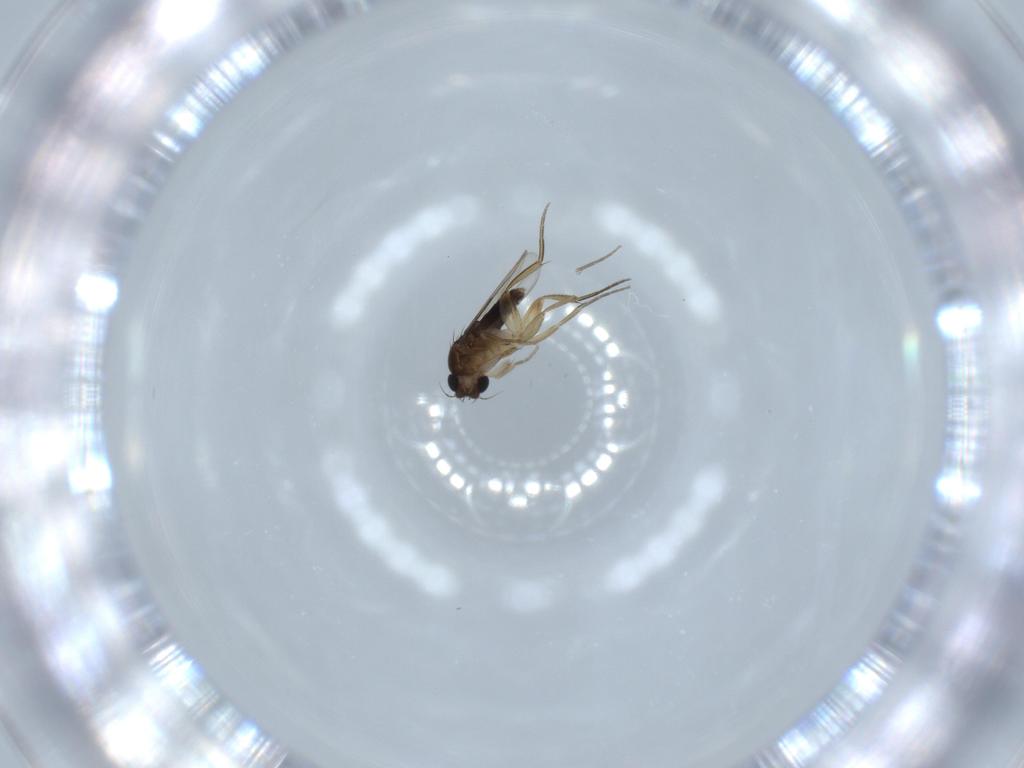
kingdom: Animalia
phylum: Arthropoda
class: Insecta
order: Diptera
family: Phoridae
